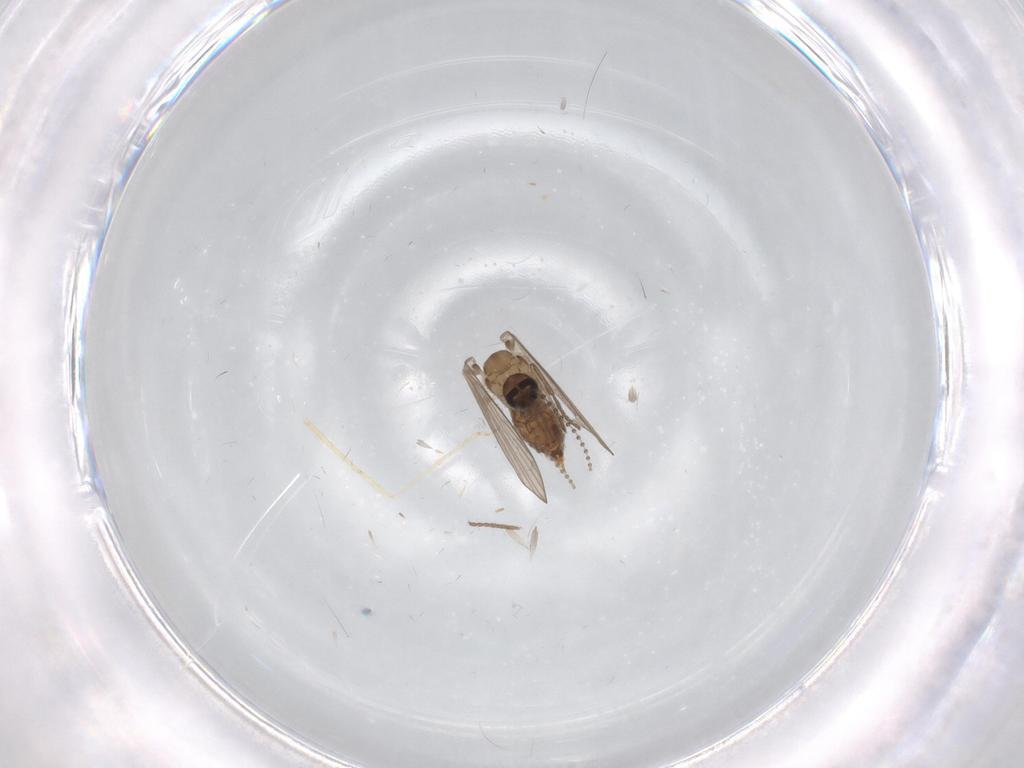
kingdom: Animalia
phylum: Arthropoda
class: Insecta
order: Diptera
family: Psychodidae
